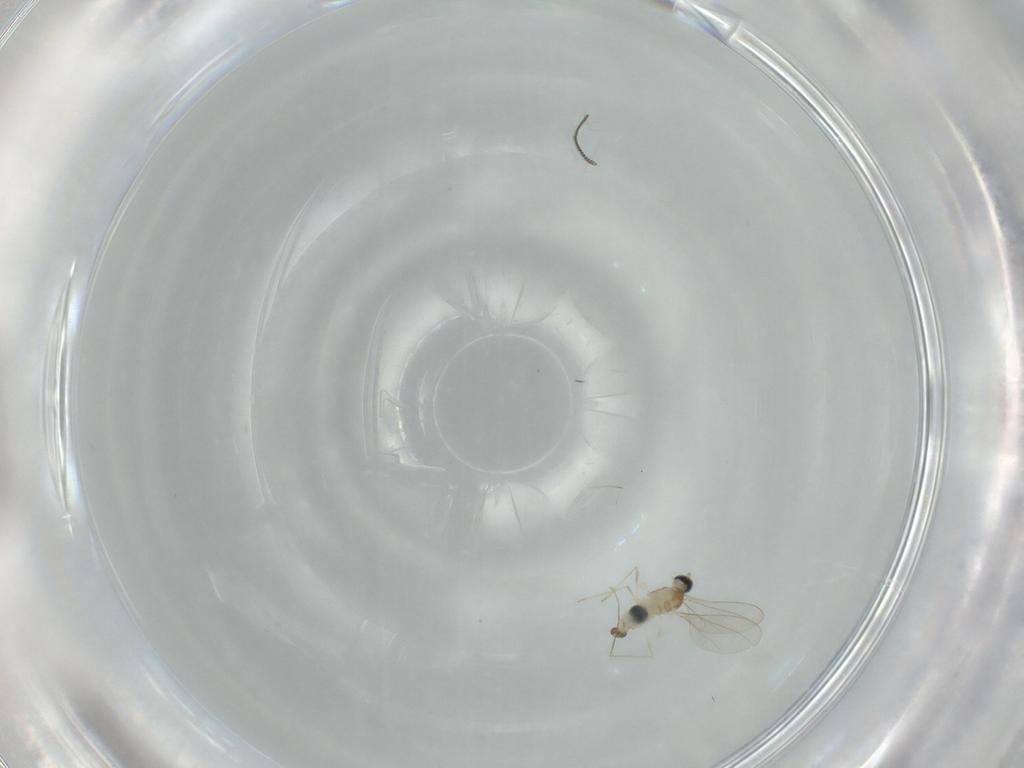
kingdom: Animalia
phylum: Arthropoda
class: Insecta
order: Diptera
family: Cecidomyiidae
